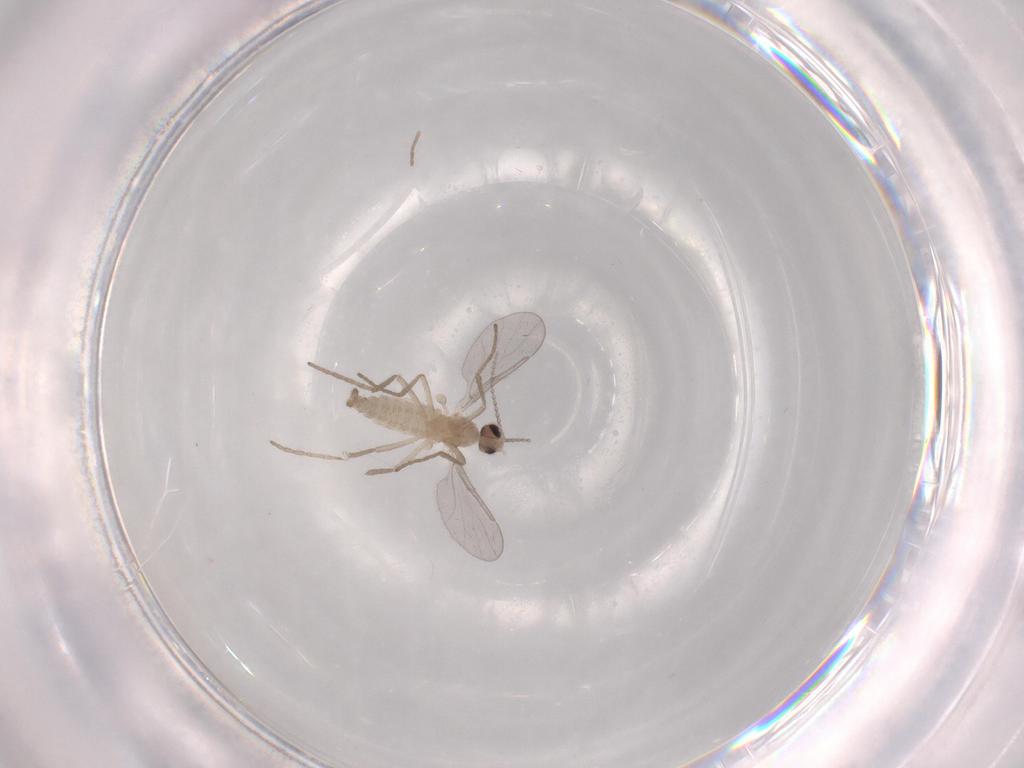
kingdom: Animalia
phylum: Arthropoda
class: Insecta
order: Diptera
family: Cecidomyiidae
